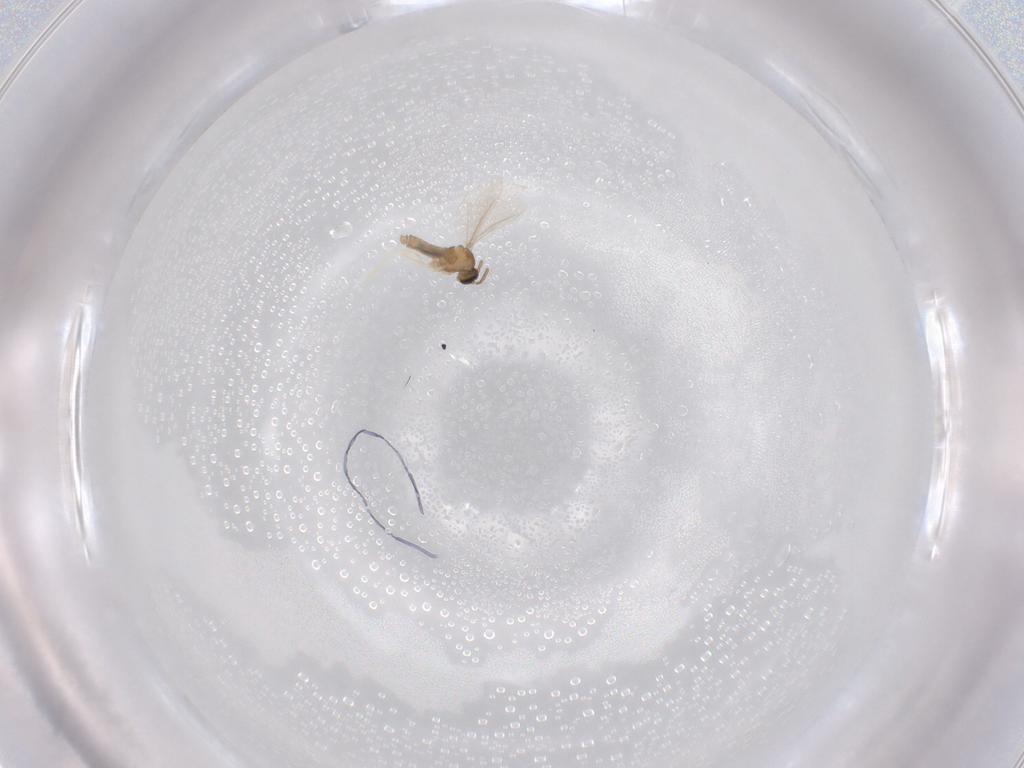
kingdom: Animalia
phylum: Arthropoda
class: Insecta
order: Diptera
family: Cecidomyiidae
